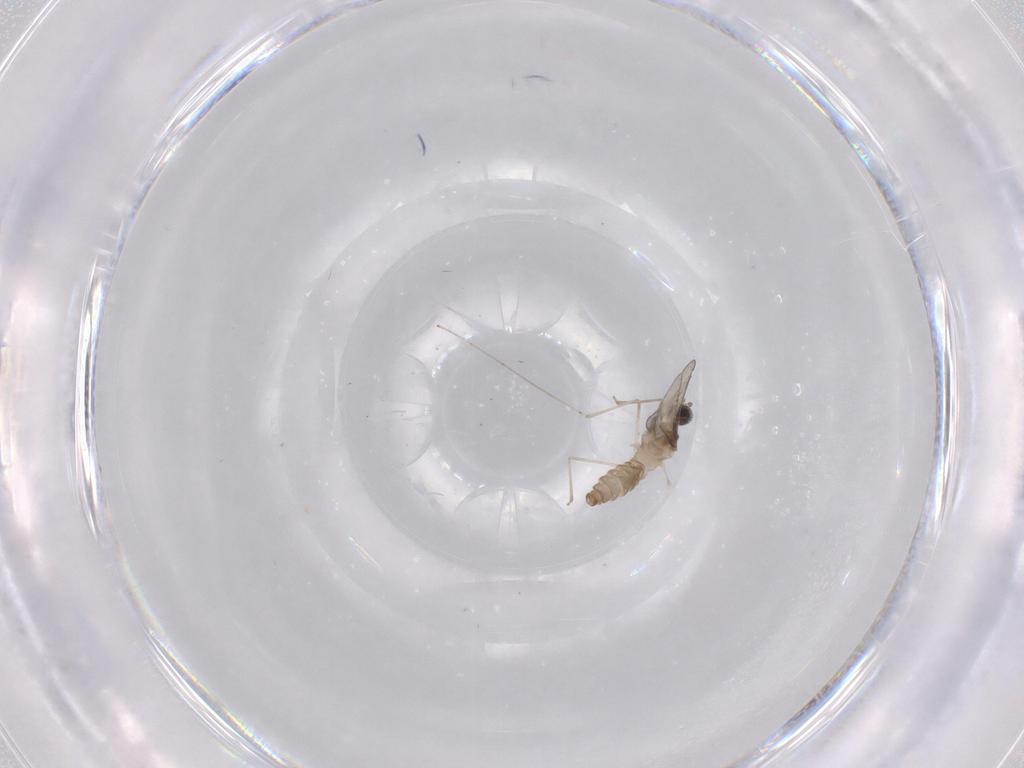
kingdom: Animalia
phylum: Arthropoda
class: Insecta
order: Diptera
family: Cecidomyiidae
